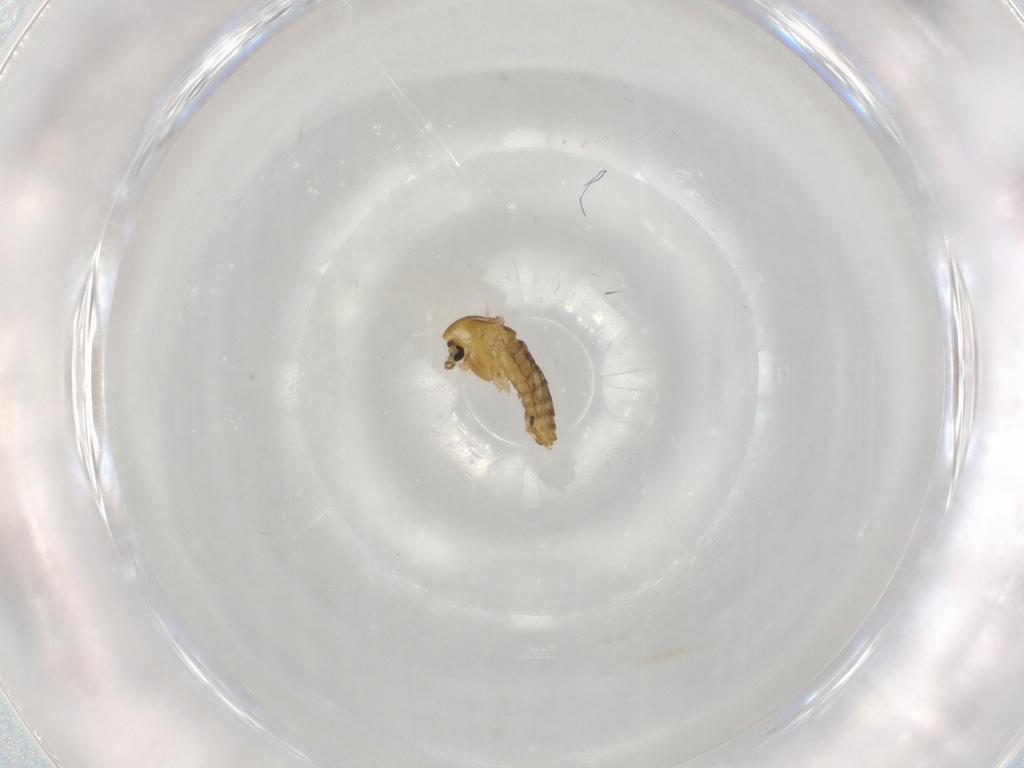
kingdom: Animalia
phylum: Arthropoda
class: Insecta
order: Diptera
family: Chironomidae
